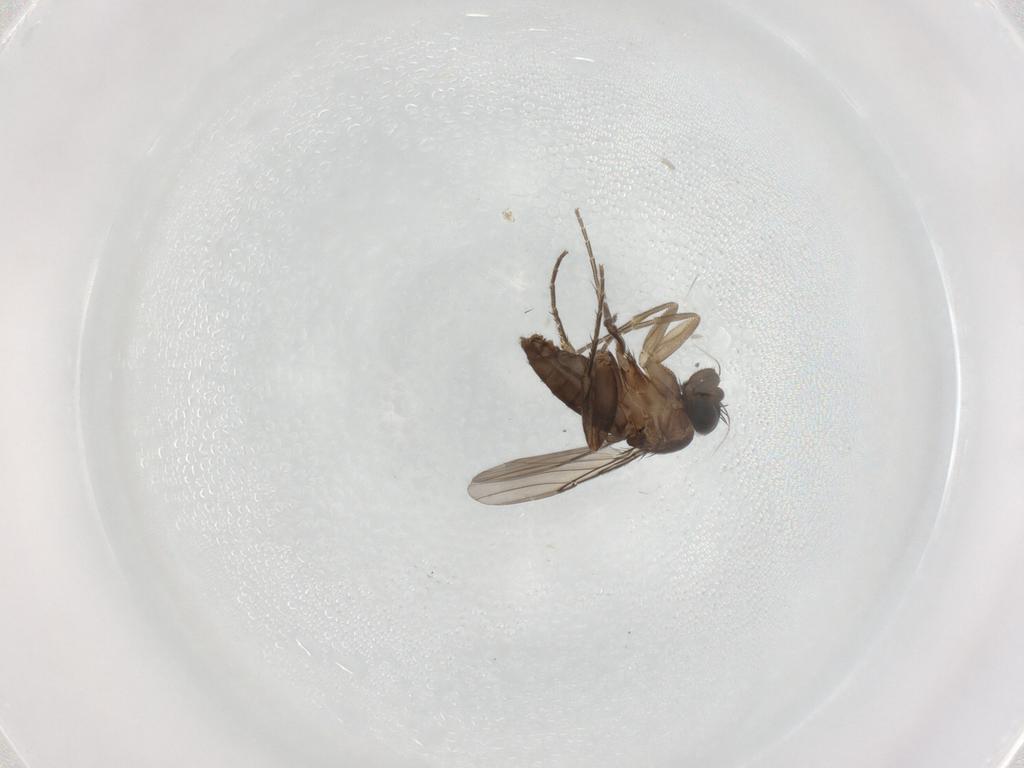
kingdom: Animalia
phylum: Arthropoda
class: Insecta
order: Diptera
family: Phoridae
